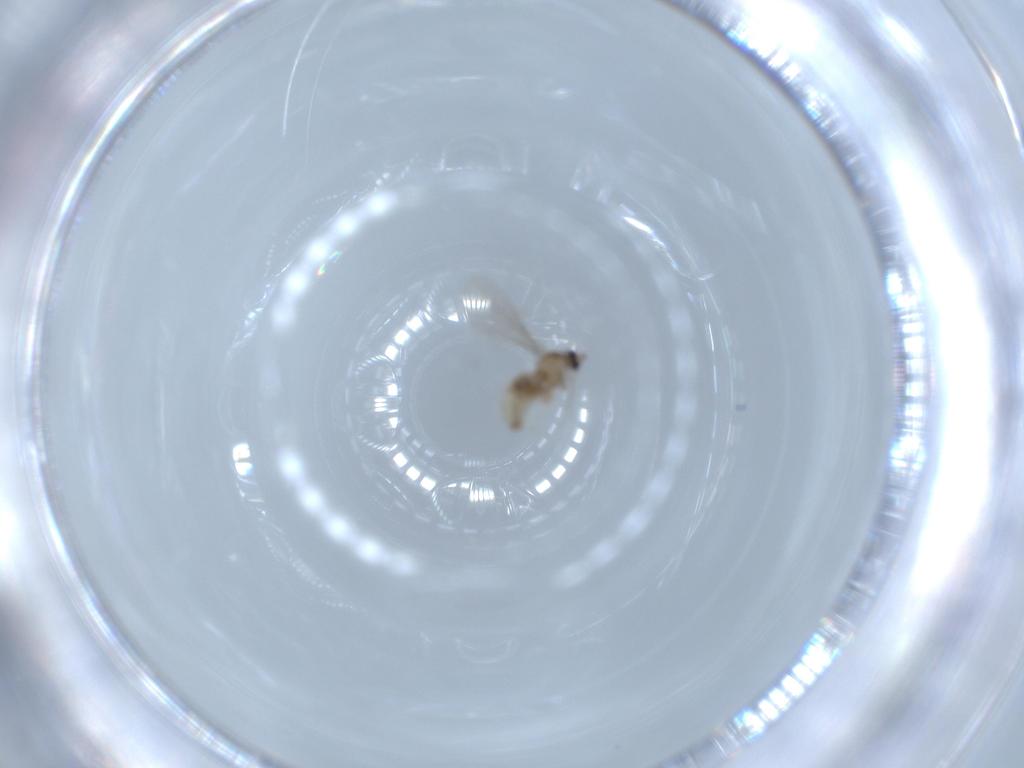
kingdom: Animalia
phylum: Arthropoda
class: Insecta
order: Diptera
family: Cecidomyiidae
